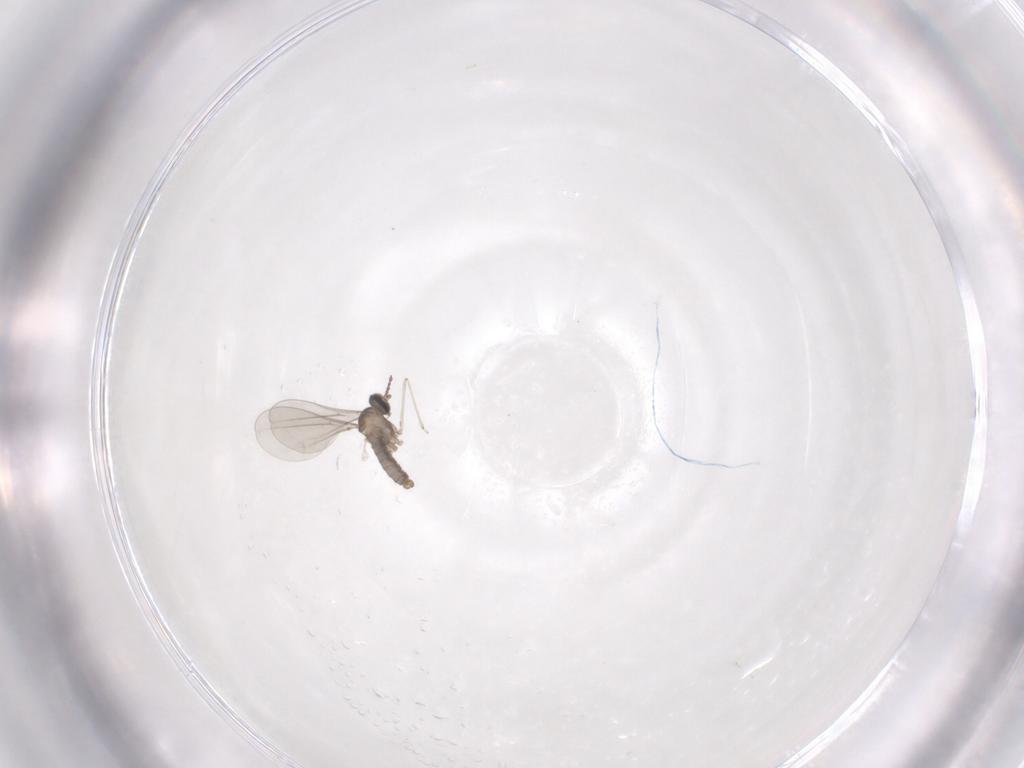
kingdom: Animalia
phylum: Arthropoda
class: Insecta
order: Diptera
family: Cecidomyiidae
